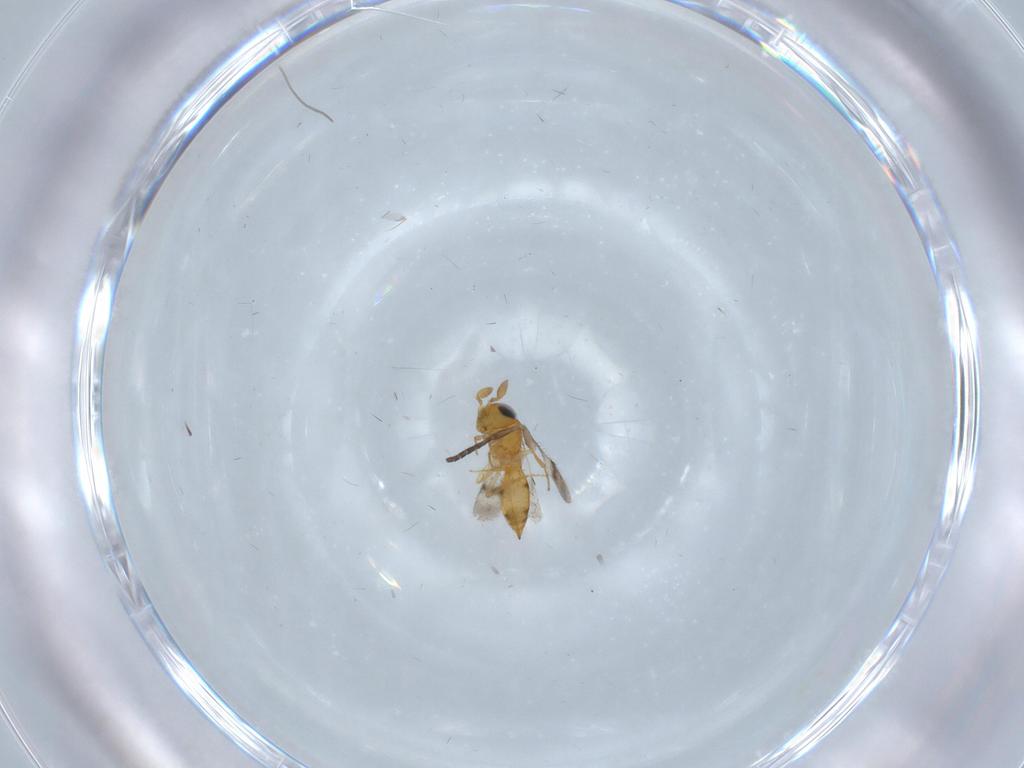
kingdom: Animalia
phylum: Arthropoda
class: Insecta
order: Hymenoptera
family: Scelionidae
